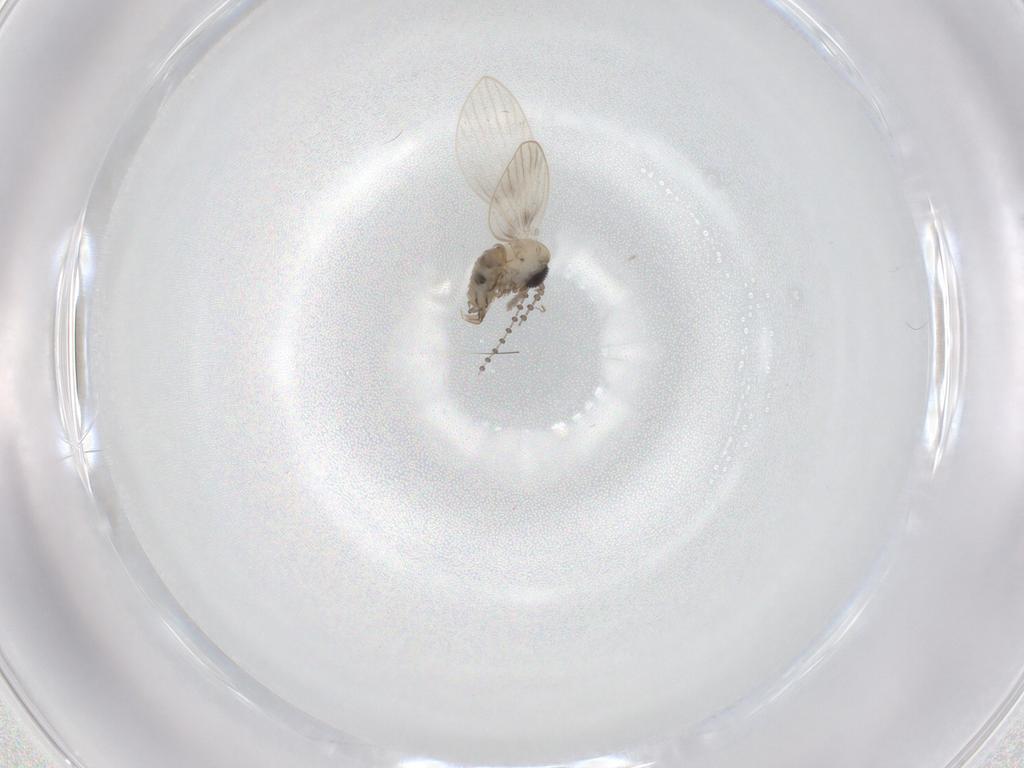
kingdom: Animalia
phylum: Arthropoda
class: Insecta
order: Diptera
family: Psychodidae
